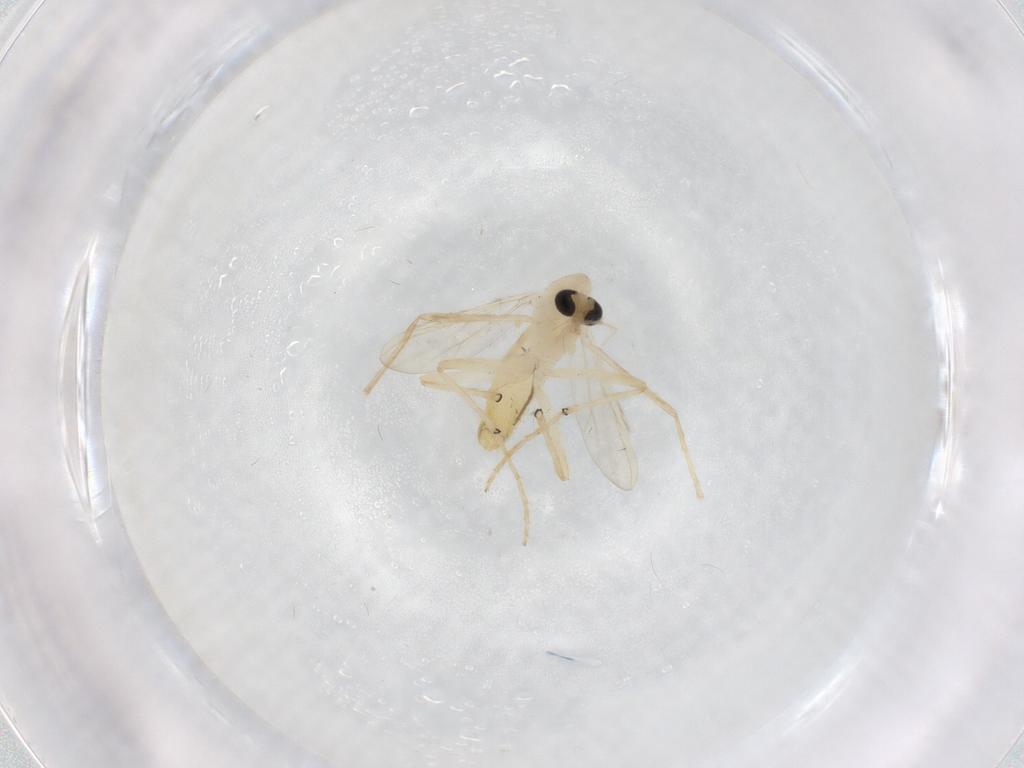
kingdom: Animalia
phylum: Arthropoda
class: Insecta
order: Diptera
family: Chironomidae
